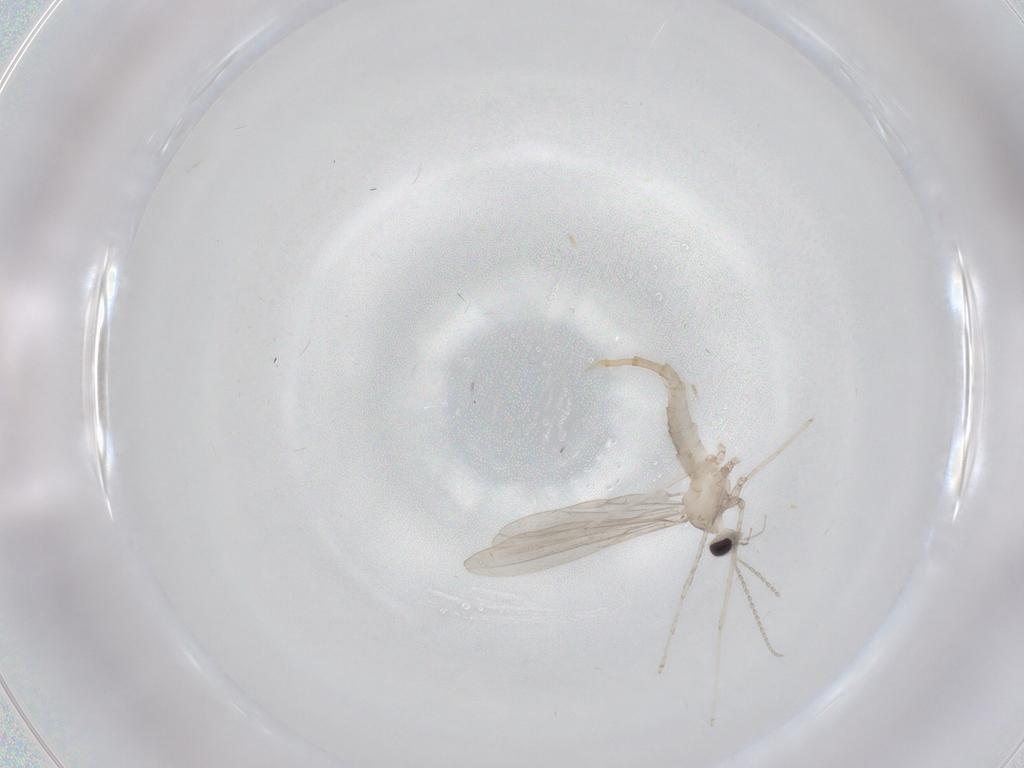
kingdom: Animalia
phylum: Arthropoda
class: Insecta
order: Diptera
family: Cecidomyiidae
